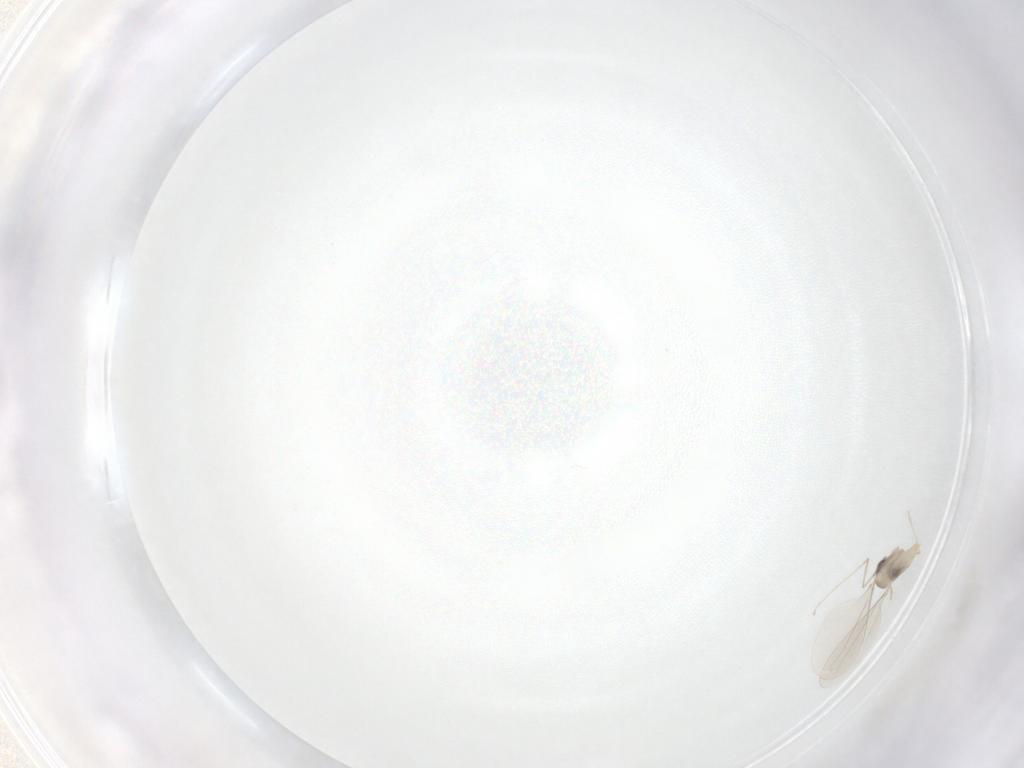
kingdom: Animalia
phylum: Arthropoda
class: Insecta
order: Diptera
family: Cecidomyiidae
